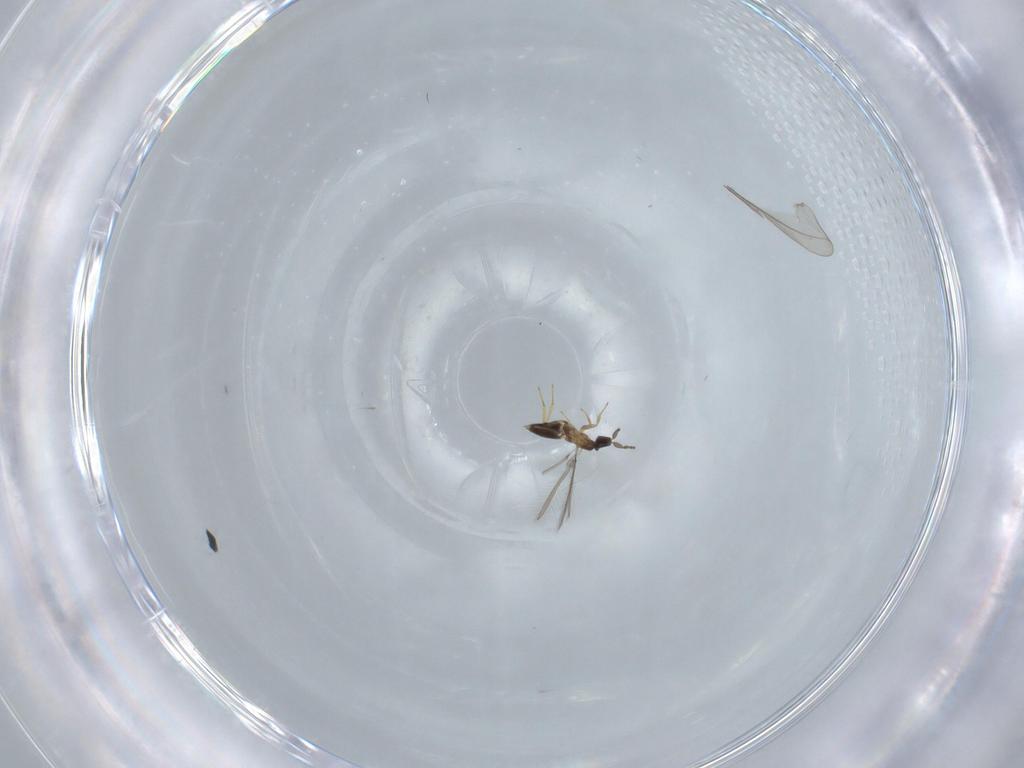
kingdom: Animalia
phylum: Arthropoda
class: Insecta
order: Hymenoptera
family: Mymaridae
